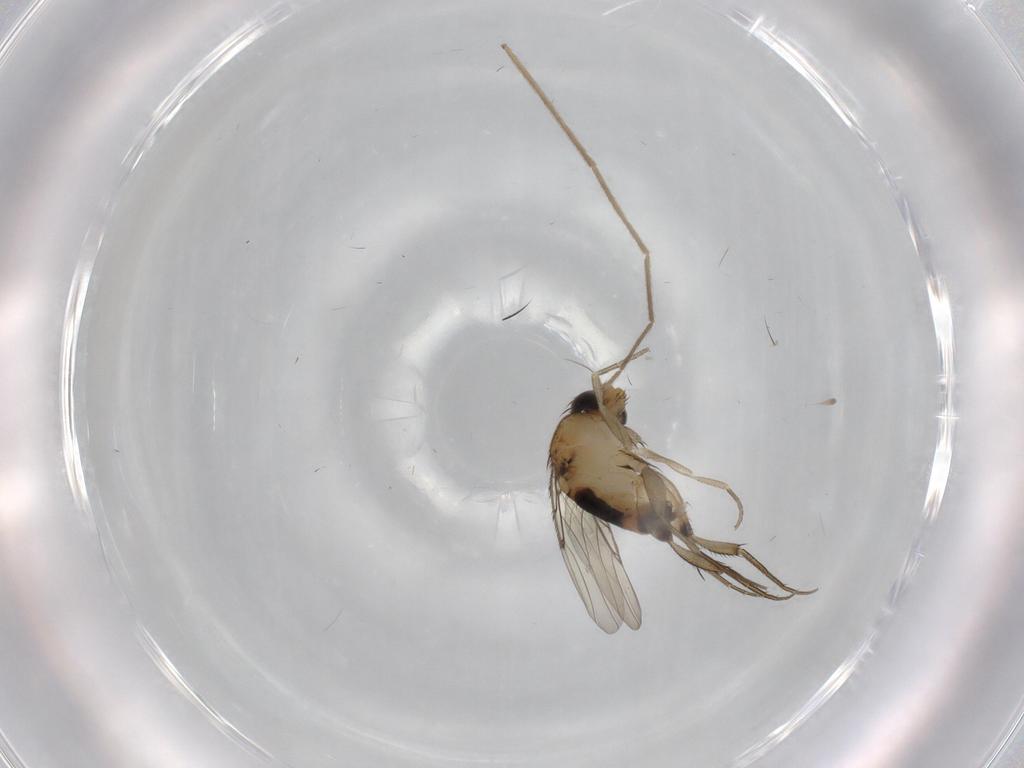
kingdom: Animalia
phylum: Arthropoda
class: Insecta
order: Diptera
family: Phoridae
